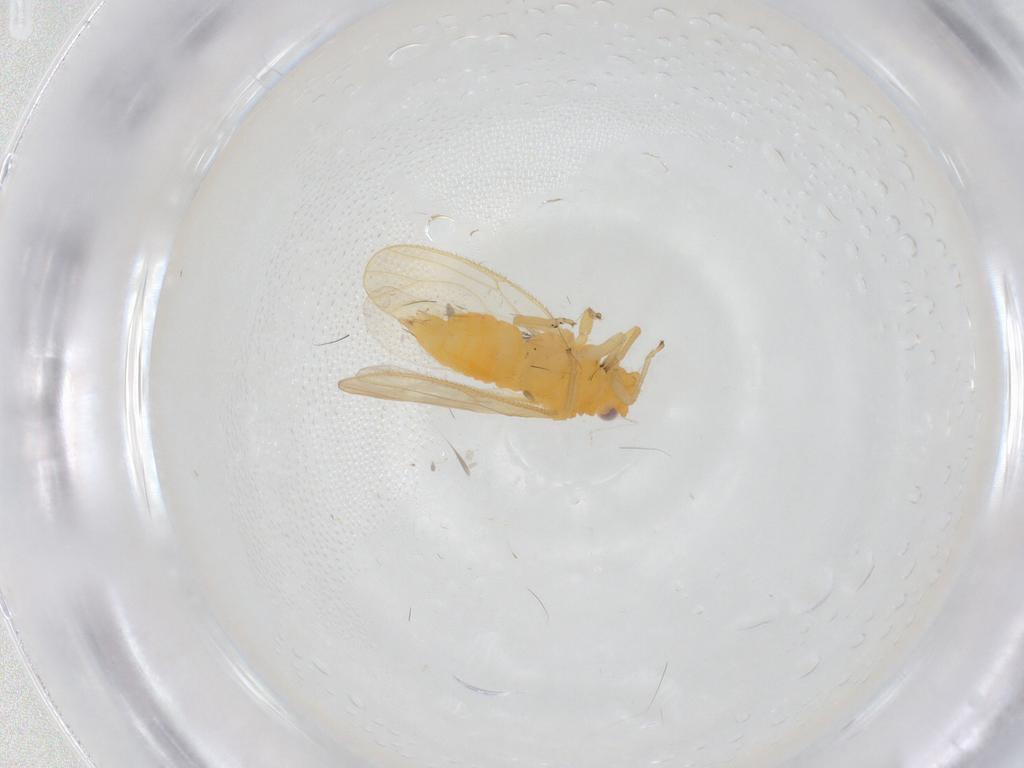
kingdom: Animalia
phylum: Arthropoda
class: Insecta
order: Hemiptera
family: Psyllidae
